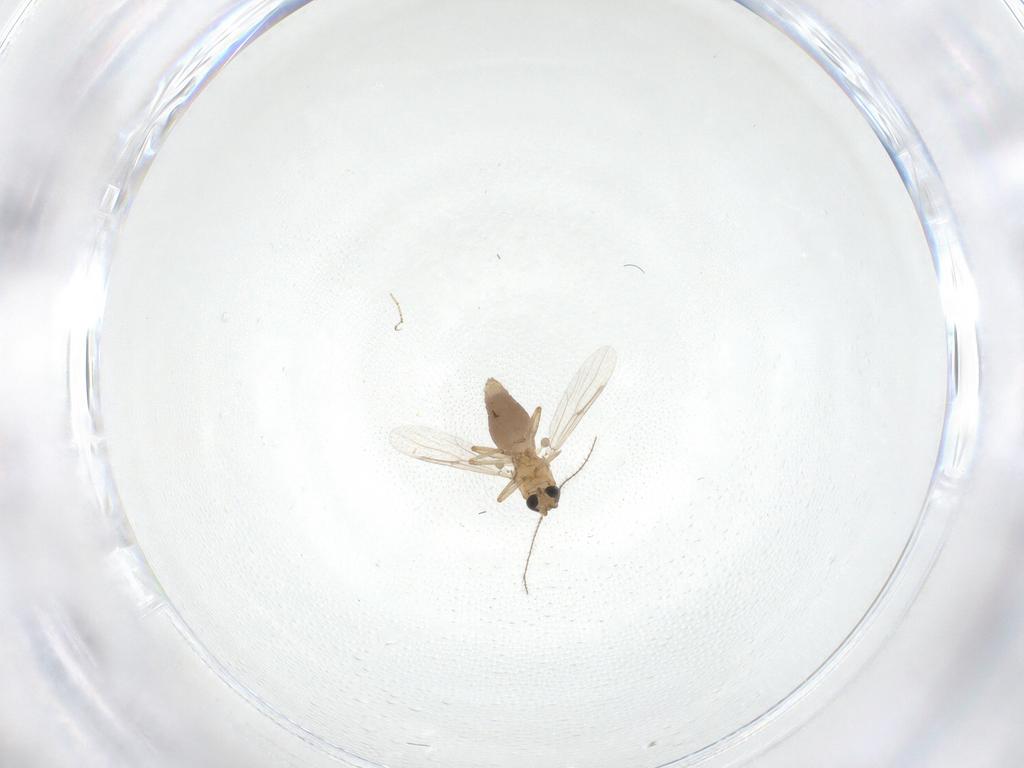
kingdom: Animalia
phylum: Arthropoda
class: Insecta
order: Diptera
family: Ceratopogonidae
